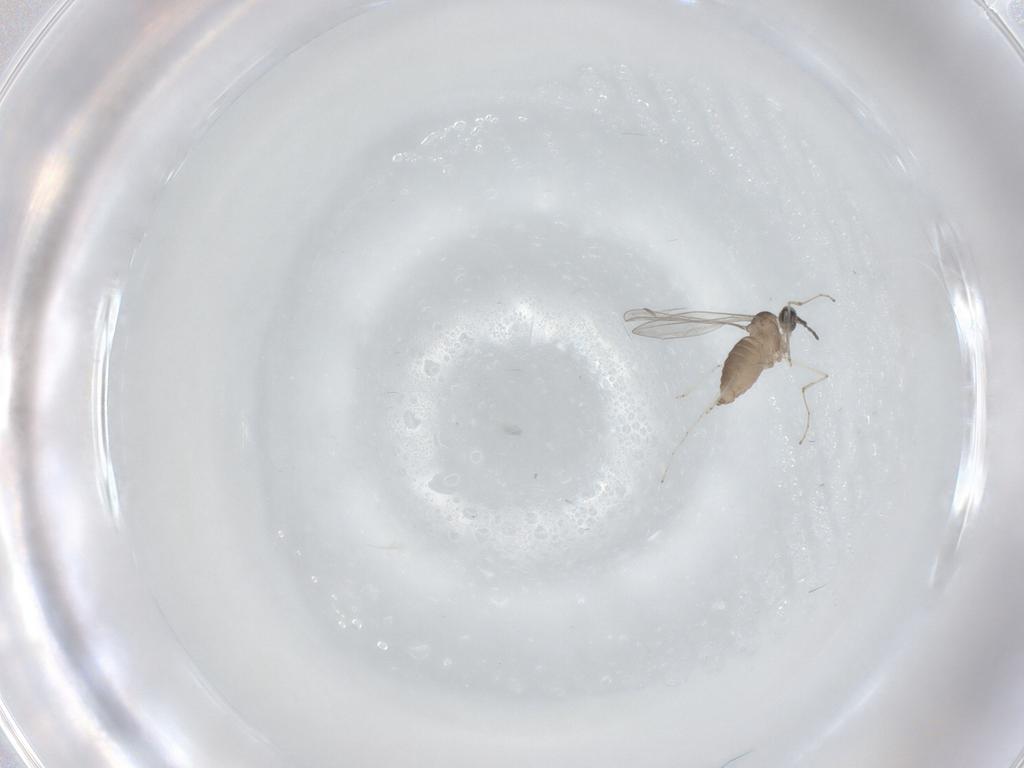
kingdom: Animalia
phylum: Arthropoda
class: Insecta
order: Diptera
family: Cecidomyiidae
